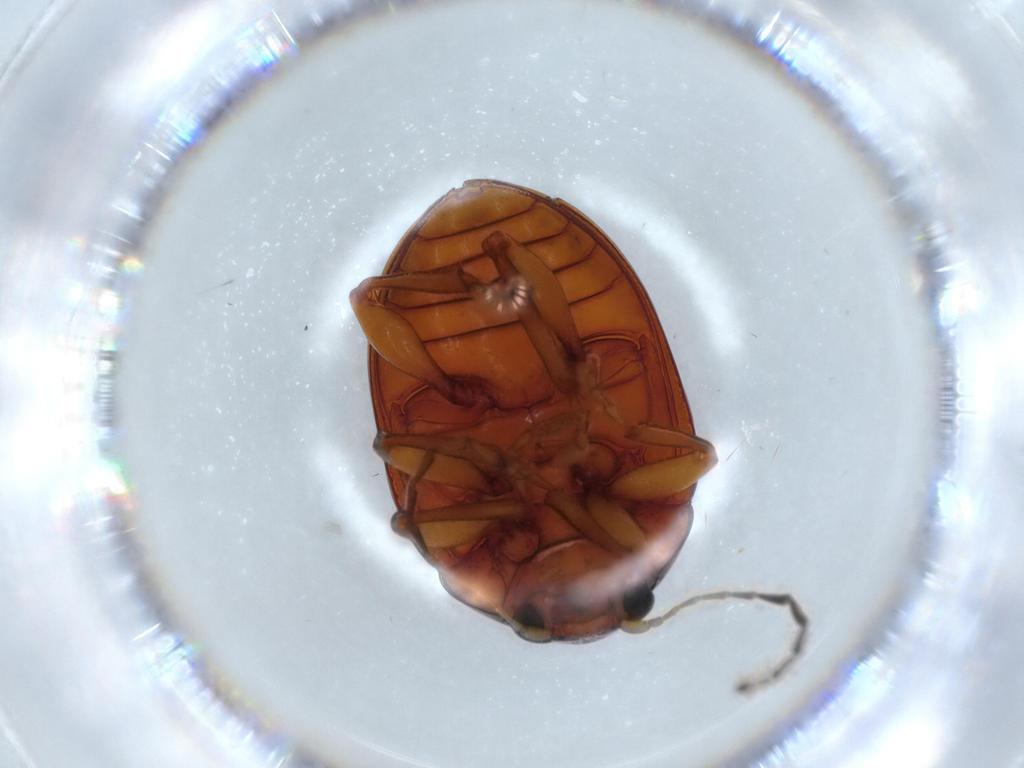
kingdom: Animalia
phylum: Arthropoda
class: Insecta
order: Coleoptera
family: Chrysomelidae
